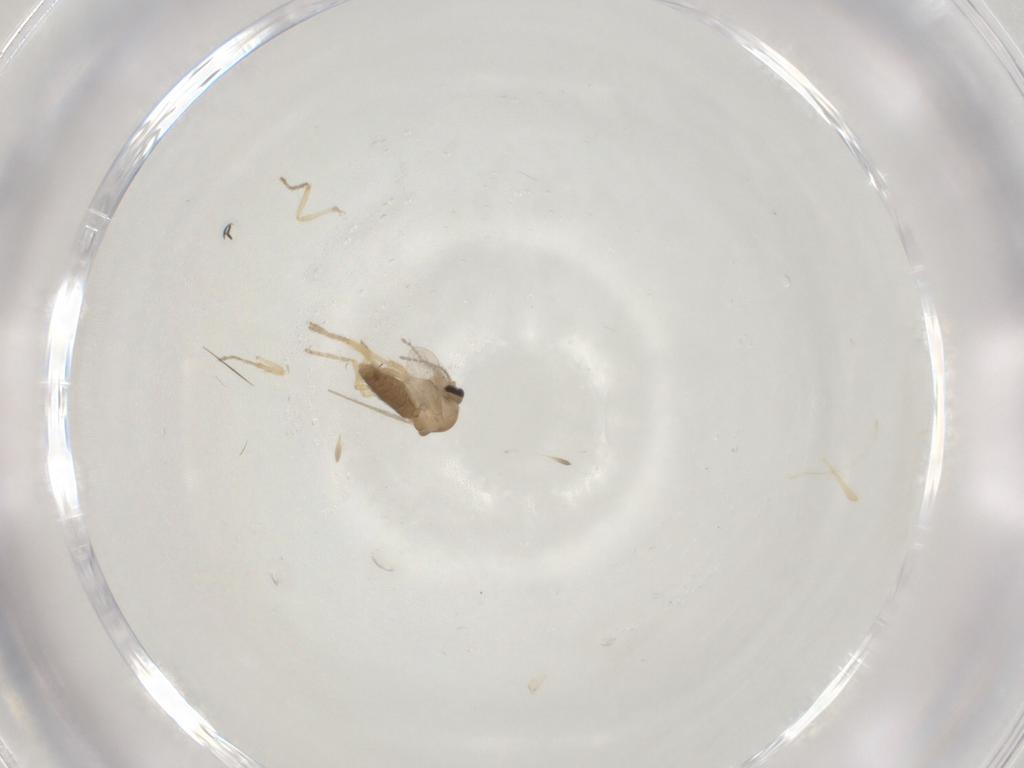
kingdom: Animalia
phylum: Arthropoda
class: Insecta
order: Diptera
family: Ceratopogonidae
